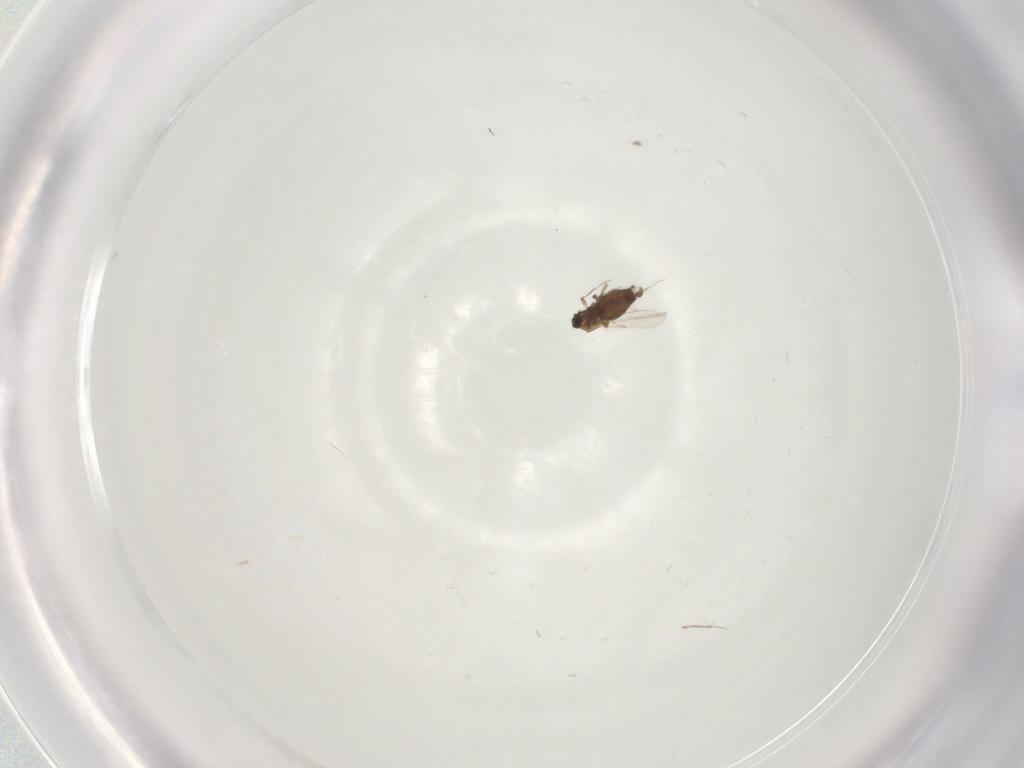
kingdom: Animalia
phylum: Arthropoda
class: Insecta
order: Diptera
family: Ceratopogonidae
